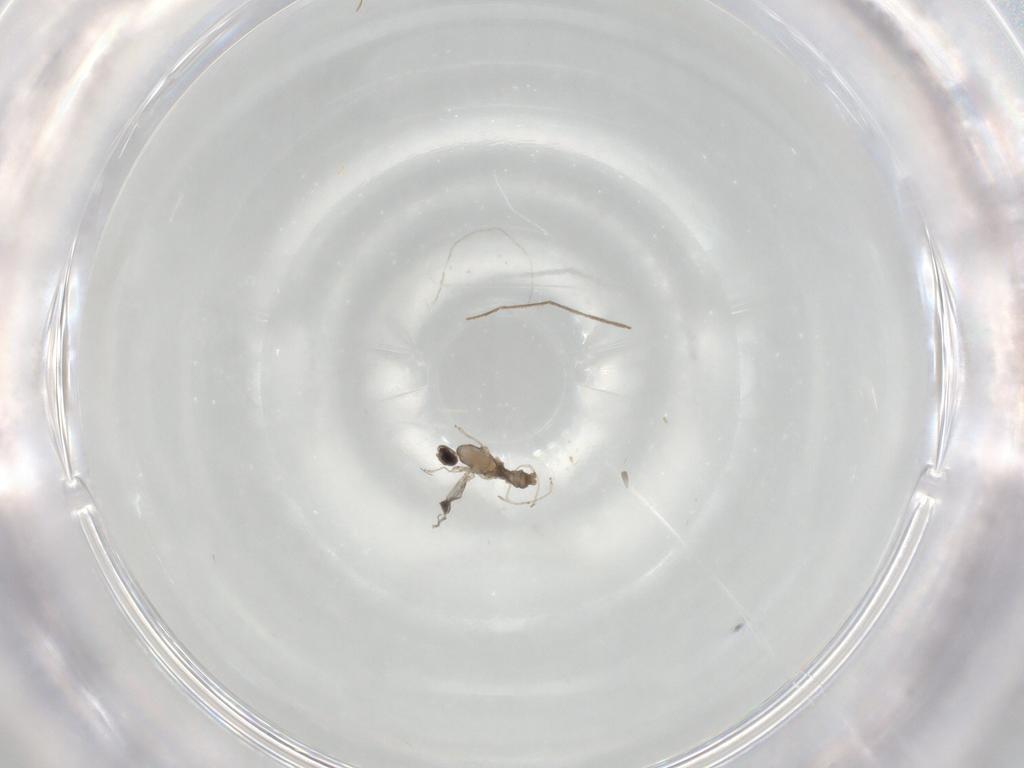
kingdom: Animalia
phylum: Arthropoda
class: Insecta
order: Diptera
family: Cecidomyiidae
